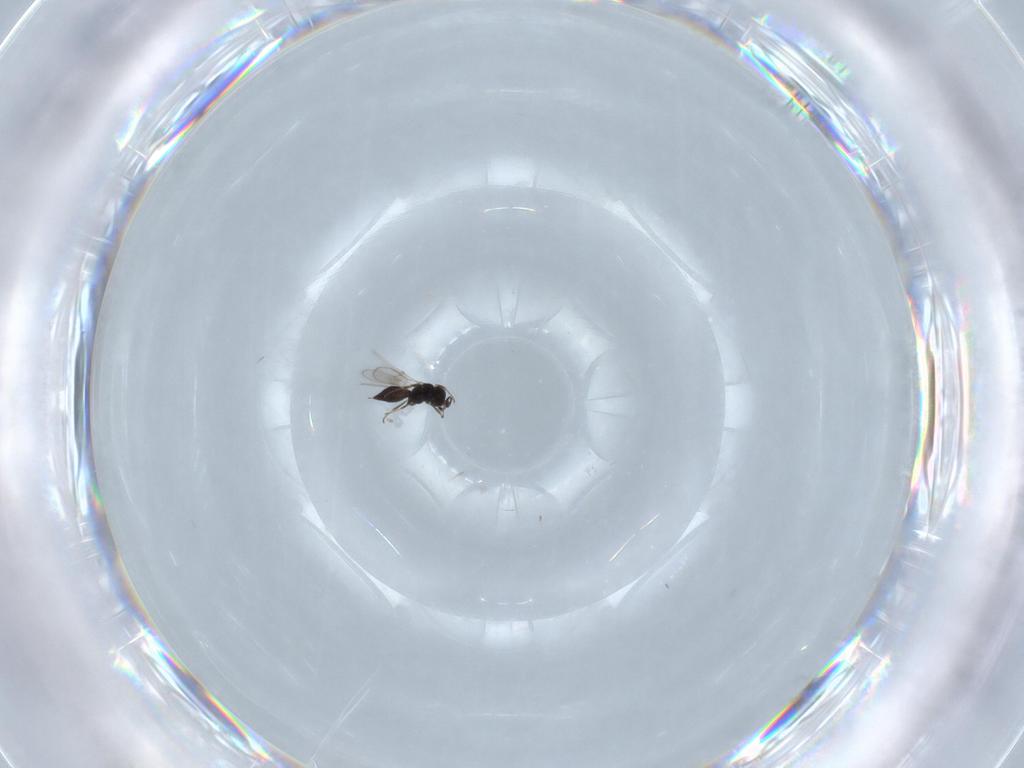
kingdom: Animalia
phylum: Arthropoda
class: Insecta
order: Hymenoptera
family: Scelionidae
